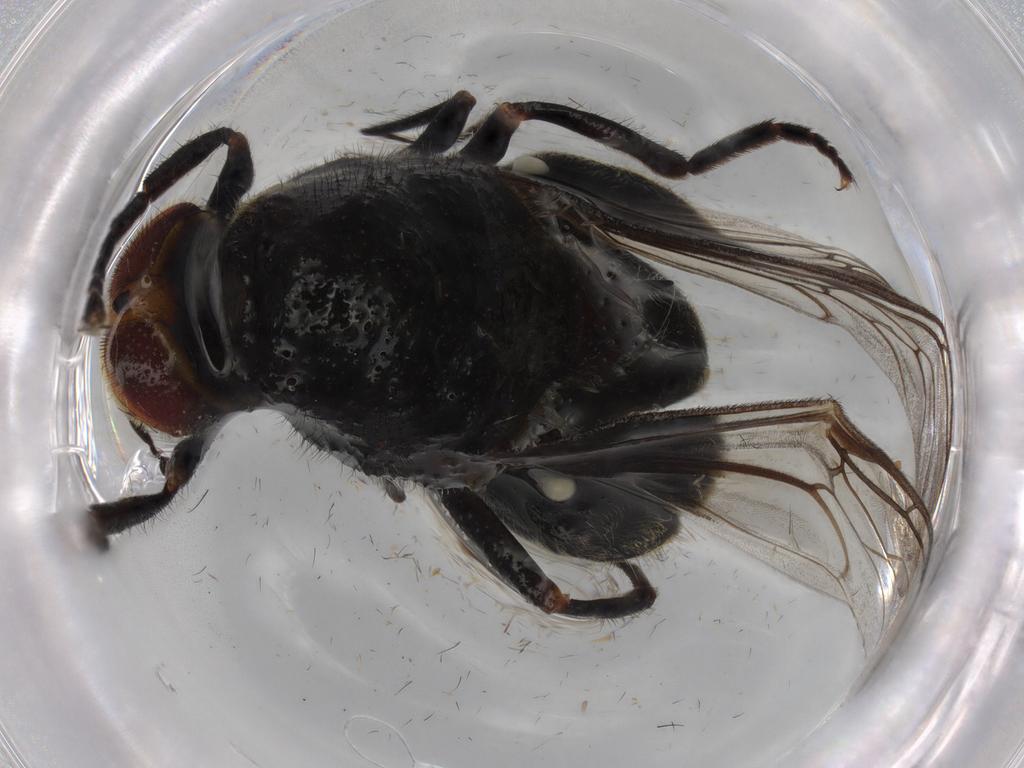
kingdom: Animalia
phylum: Arthropoda
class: Insecta
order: Diptera
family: Stratiomyidae
